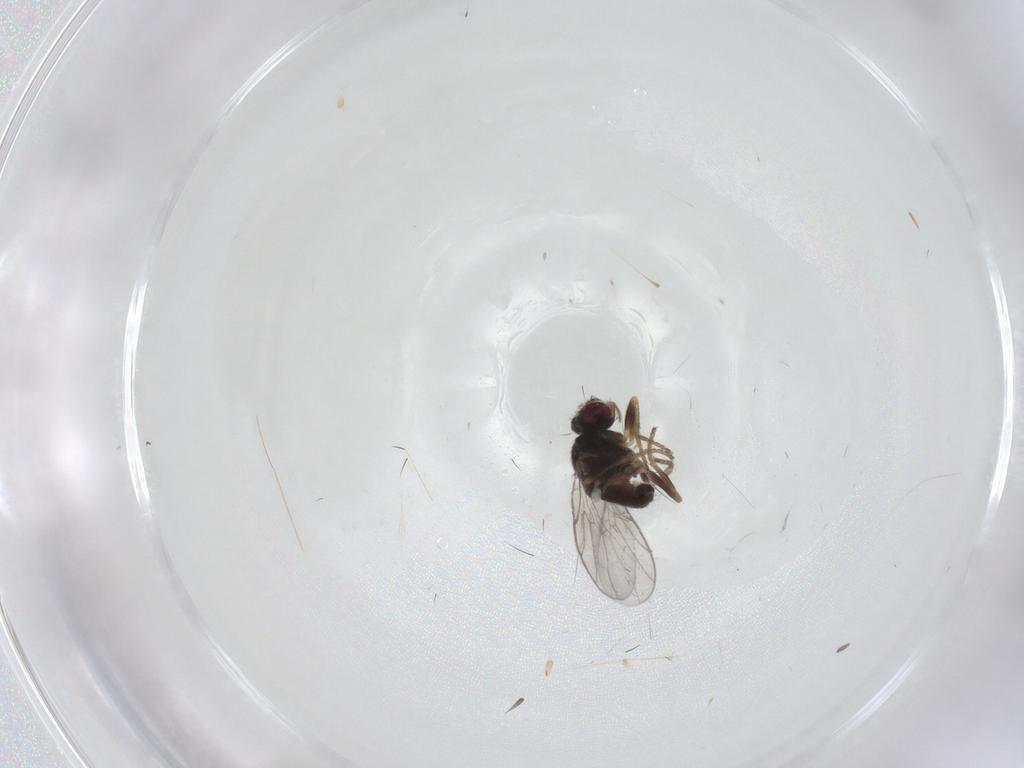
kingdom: Animalia
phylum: Arthropoda
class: Insecta
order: Diptera
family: Chloropidae
